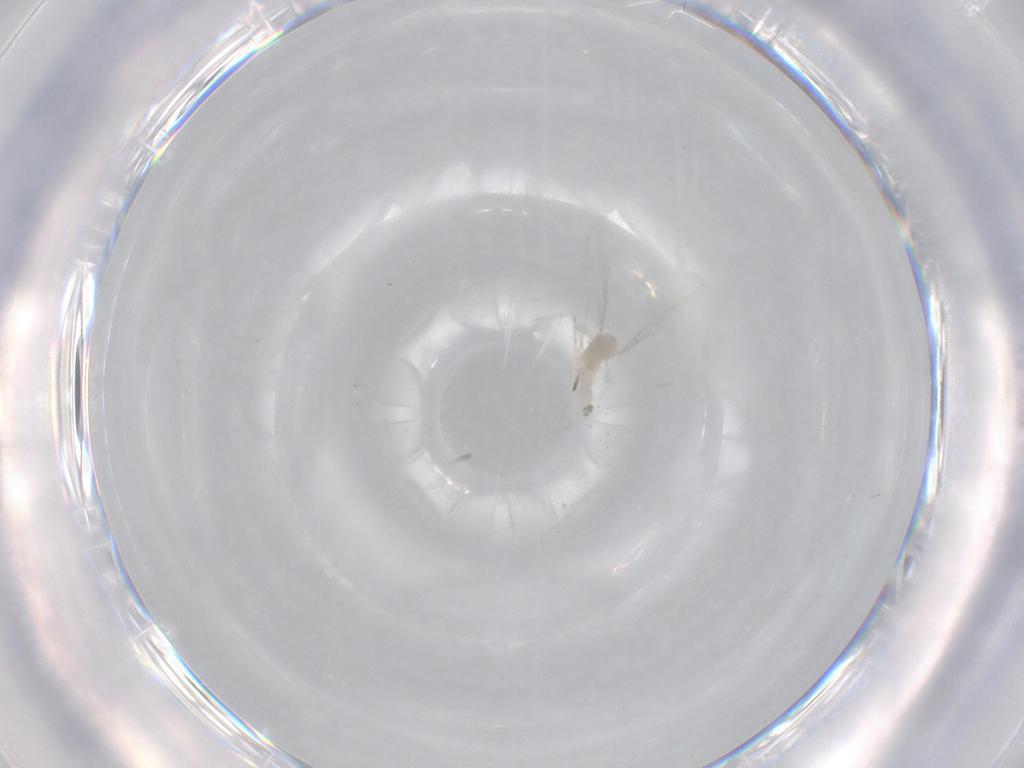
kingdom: Animalia
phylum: Arthropoda
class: Insecta
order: Diptera
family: Cecidomyiidae
